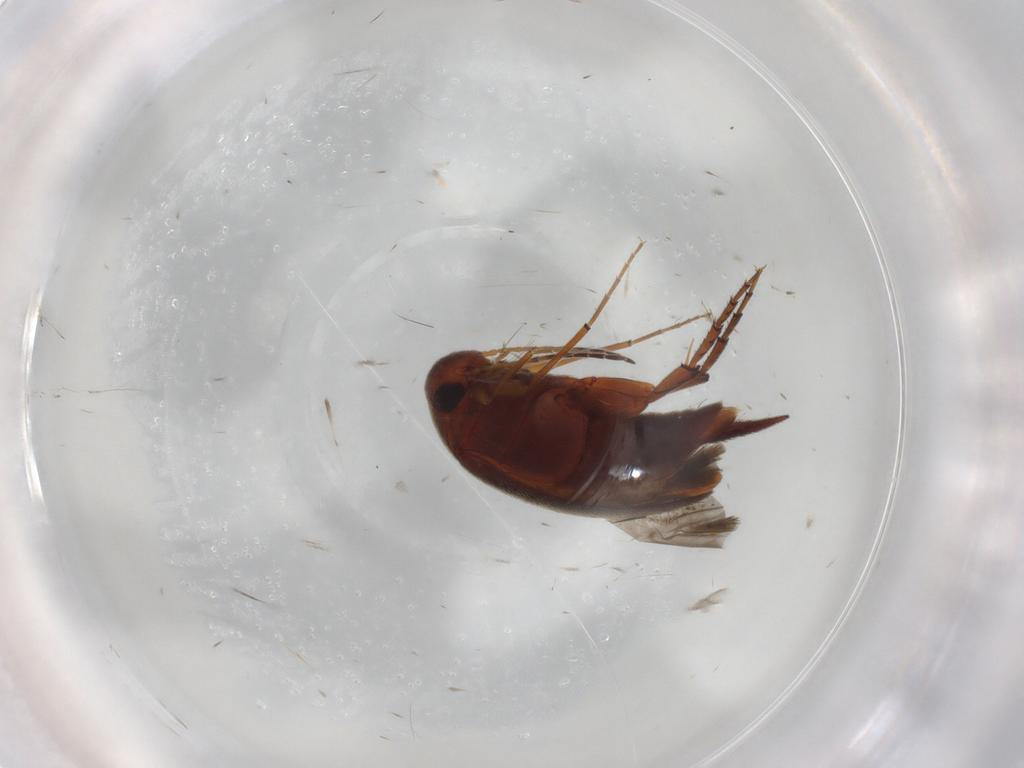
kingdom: Animalia
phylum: Arthropoda
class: Insecta
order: Coleoptera
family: Mordellidae
